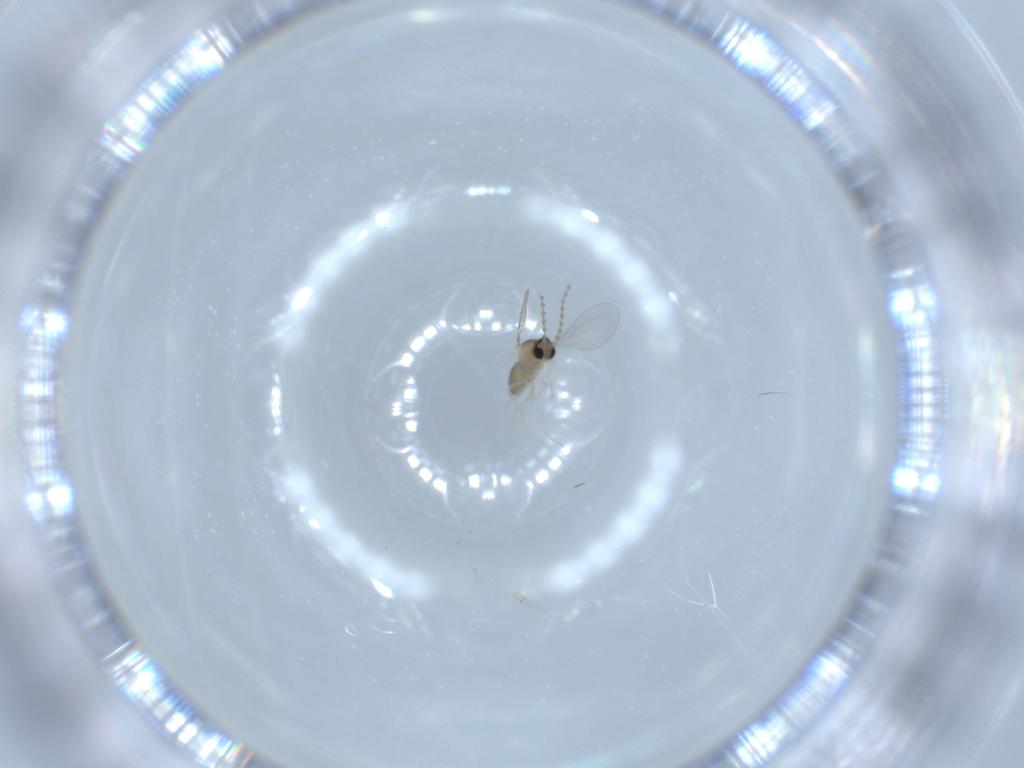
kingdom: Animalia
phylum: Arthropoda
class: Insecta
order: Diptera
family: Cecidomyiidae
